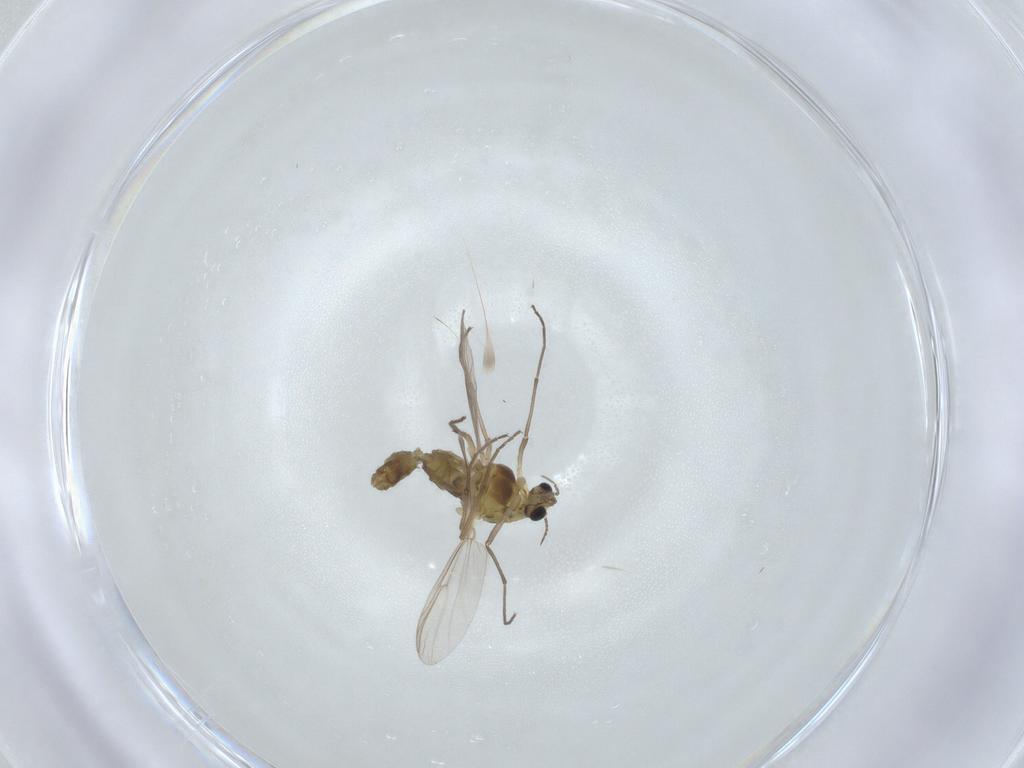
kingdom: Animalia
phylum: Arthropoda
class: Insecta
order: Diptera
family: Chironomidae
